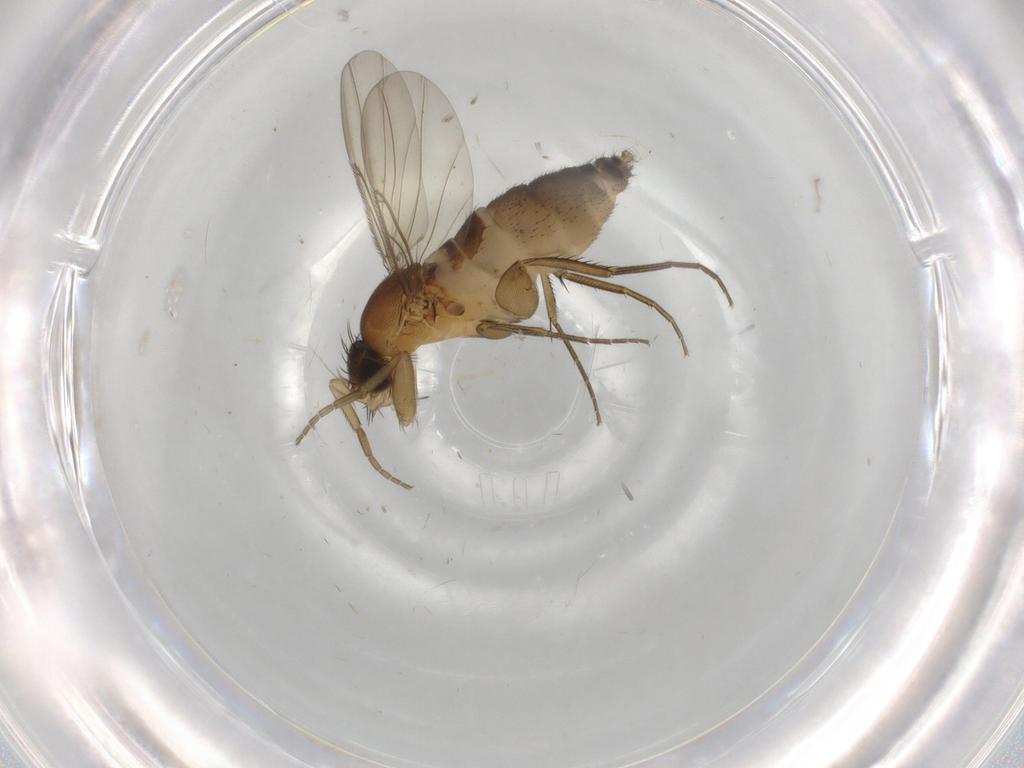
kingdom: Animalia
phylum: Arthropoda
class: Insecta
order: Diptera
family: Phoridae
